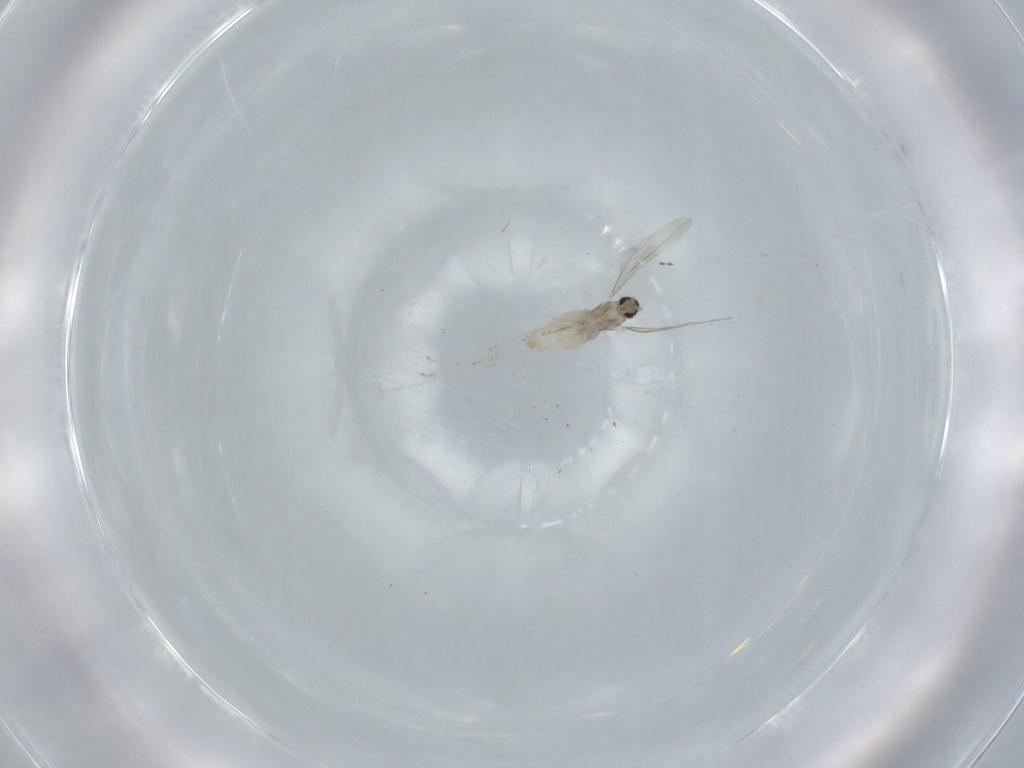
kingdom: Animalia
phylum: Arthropoda
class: Insecta
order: Diptera
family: Cecidomyiidae
